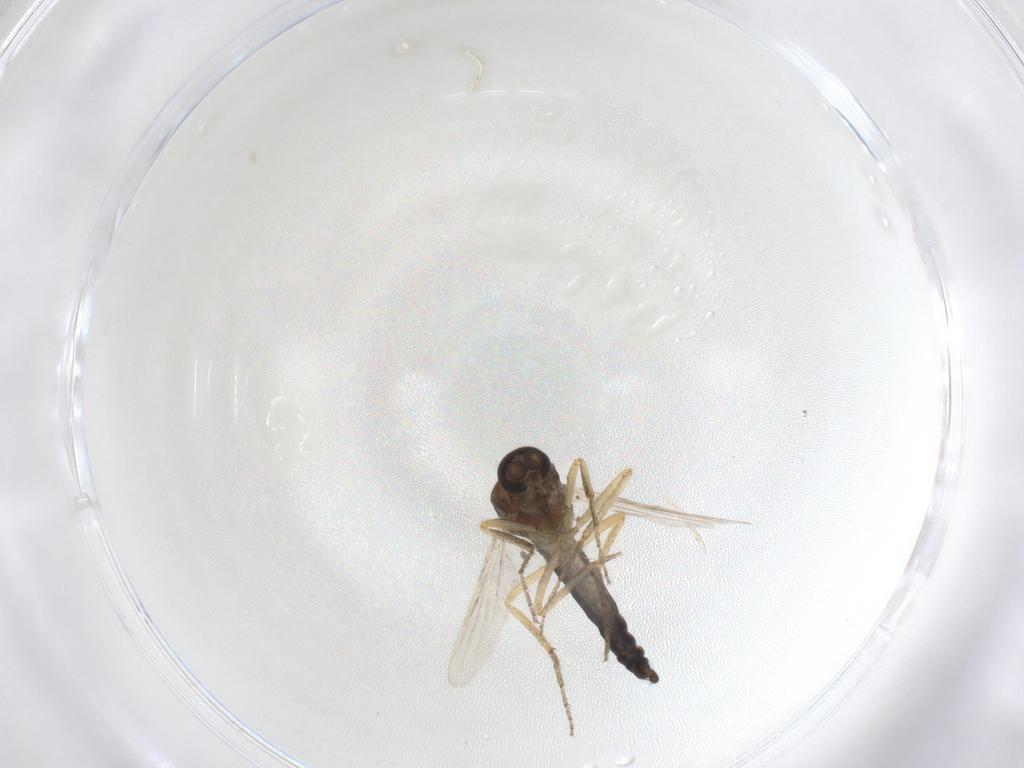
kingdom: Animalia
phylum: Arthropoda
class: Insecta
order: Diptera
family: Ceratopogonidae
